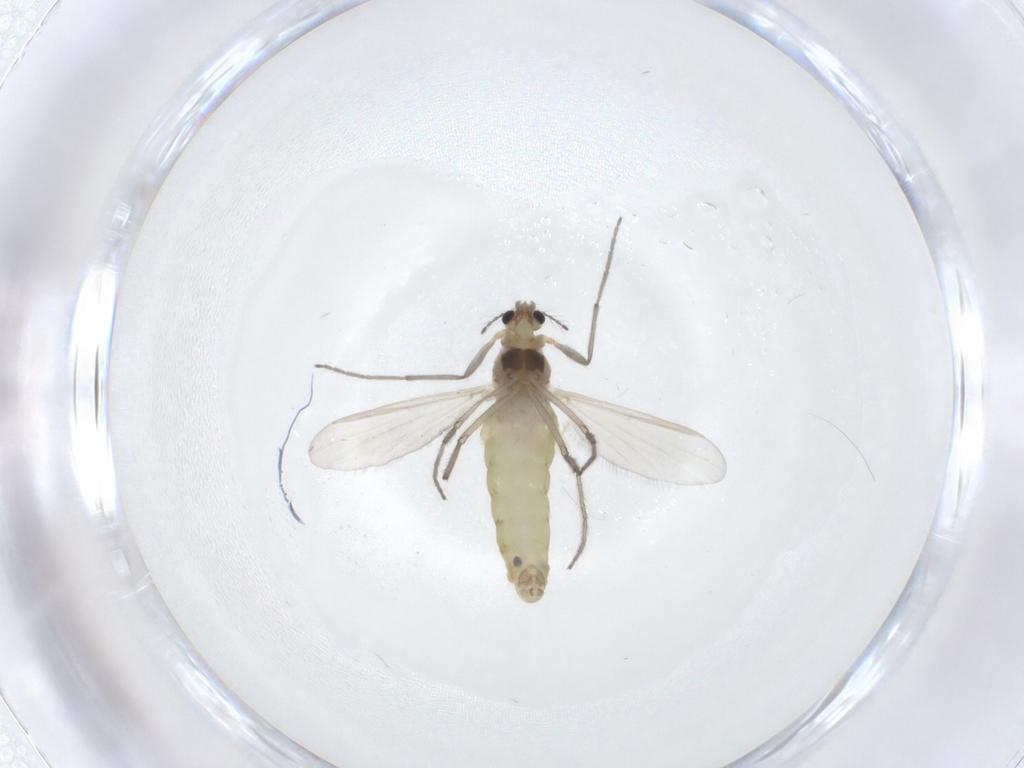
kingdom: Animalia
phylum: Arthropoda
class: Insecta
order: Diptera
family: Chironomidae
